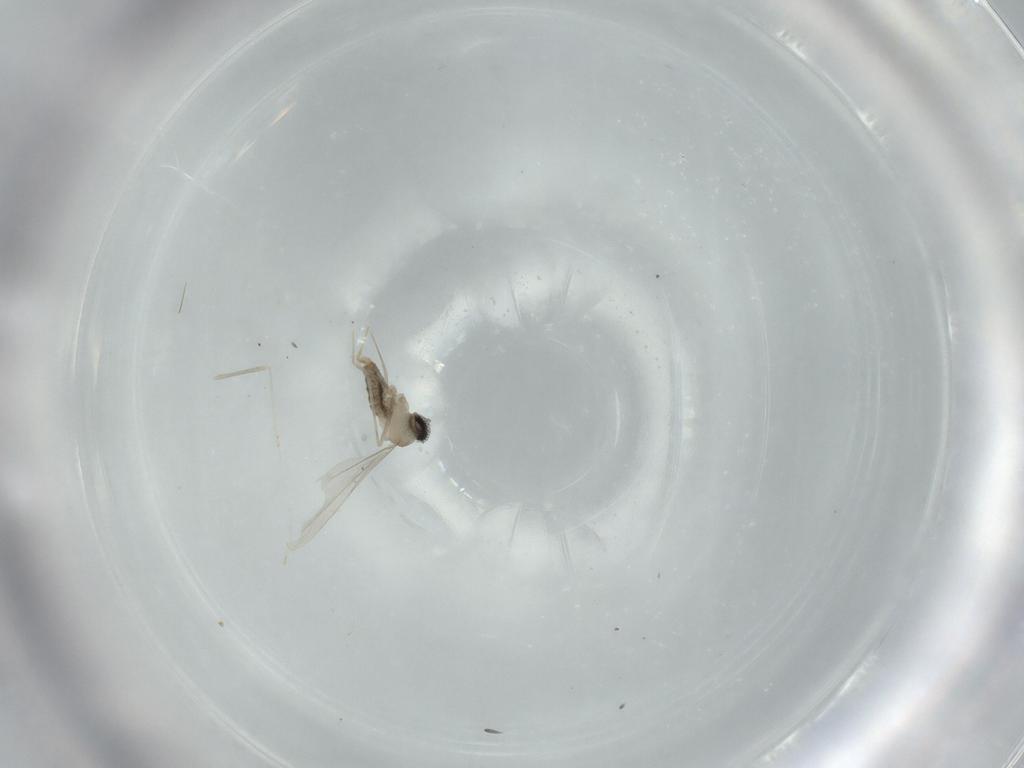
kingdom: Animalia
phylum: Arthropoda
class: Insecta
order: Diptera
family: Cecidomyiidae
